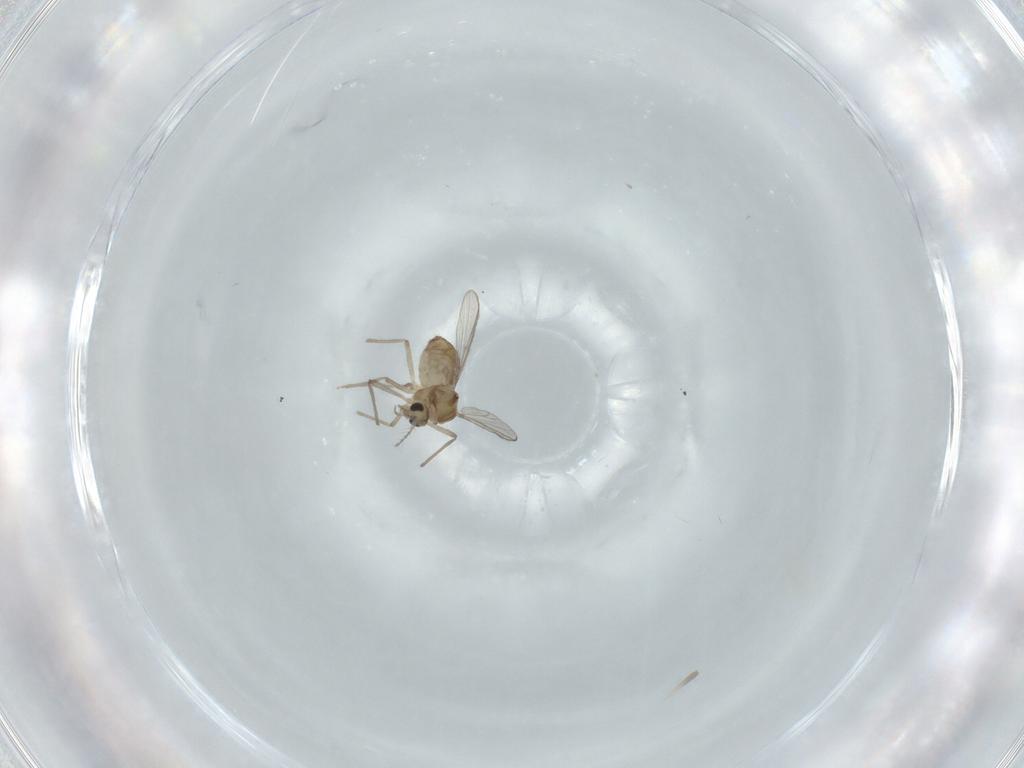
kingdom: Animalia
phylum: Arthropoda
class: Insecta
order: Diptera
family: Chironomidae
